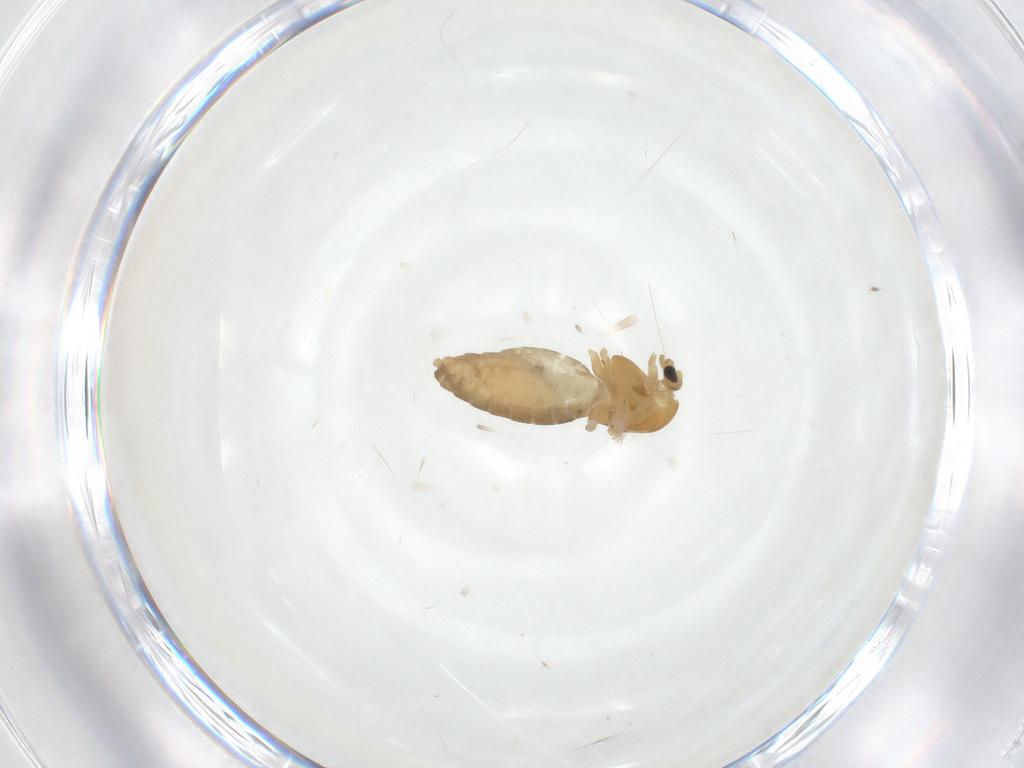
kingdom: Animalia
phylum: Arthropoda
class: Insecta
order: Diptera
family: Chironomidae
